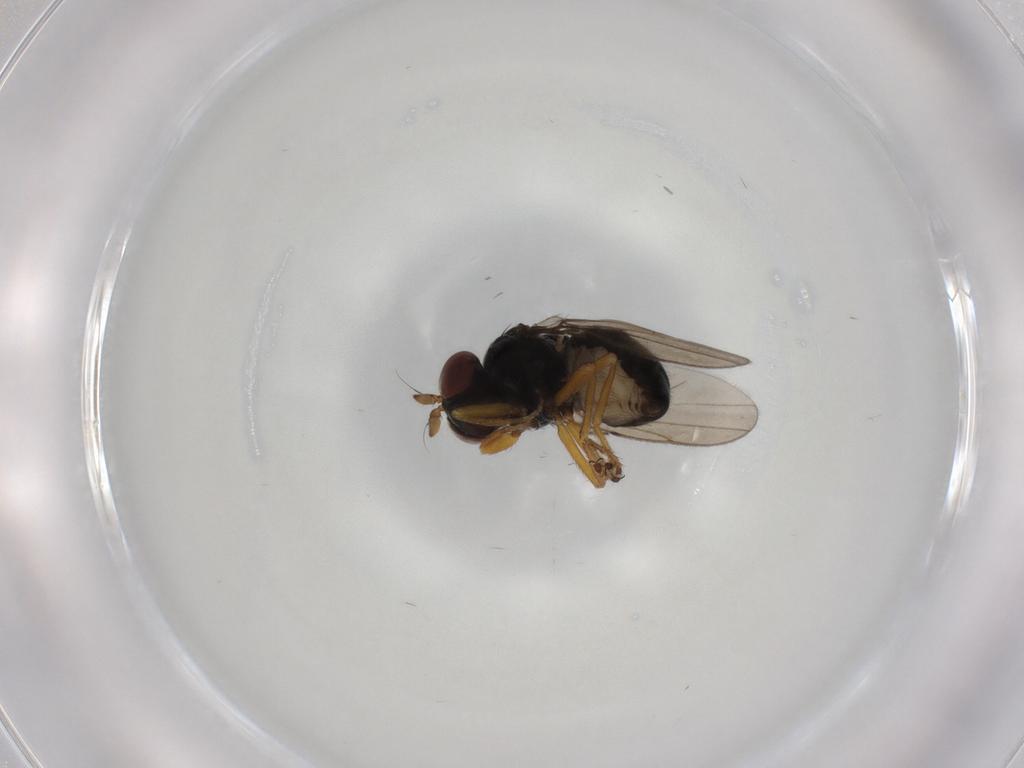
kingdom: Animalia
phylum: Arthropoda
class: Insecta
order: Diptera
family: Ephydridae
